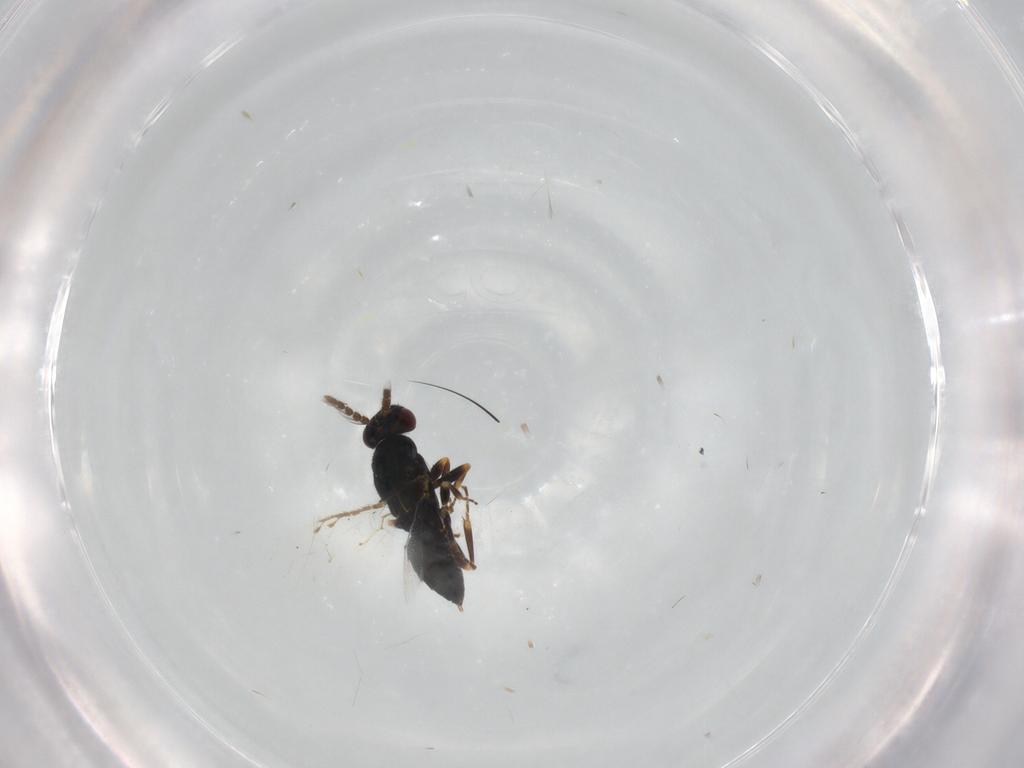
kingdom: Animalia
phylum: Arthropoda
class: Insecta
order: Hymenoptera
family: Eulophidae
